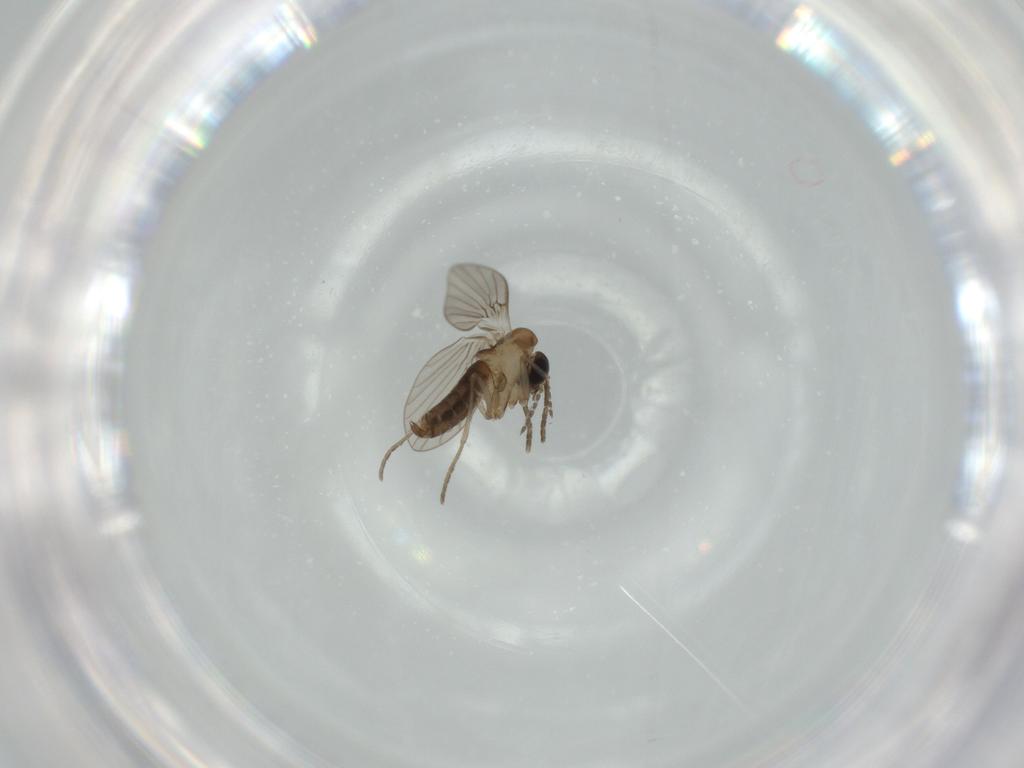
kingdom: Animalia
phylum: Arthropoda
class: Insecta
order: Diptera
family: Psychodidae
